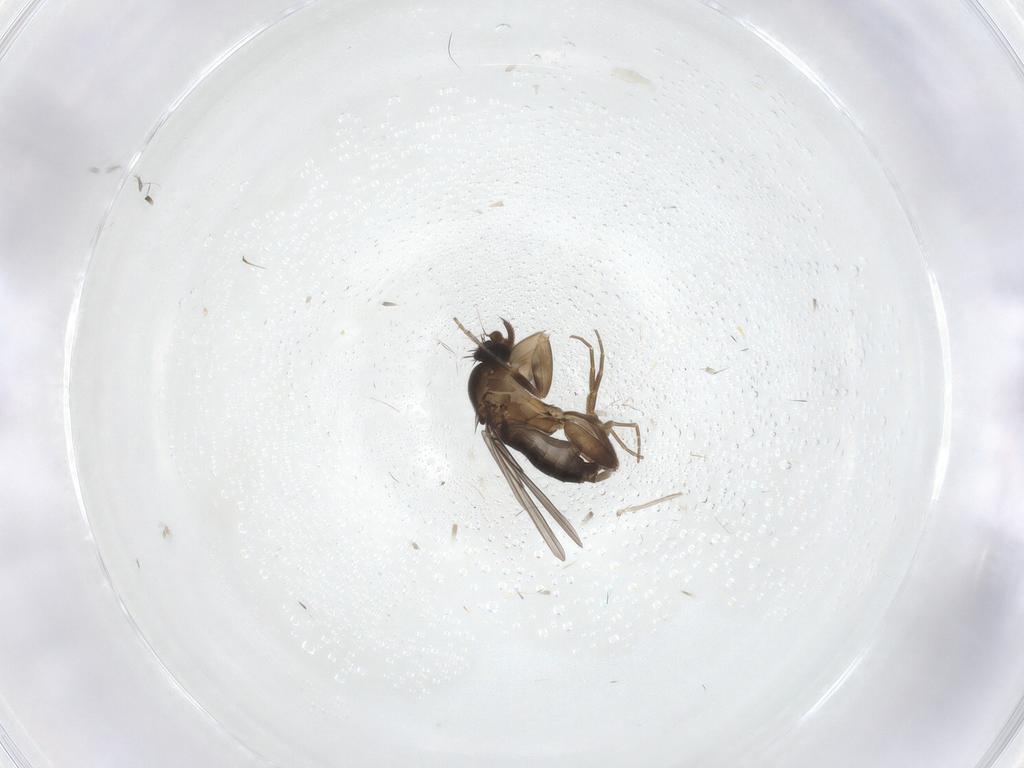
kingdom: Animalia
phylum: Arthropoda
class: Insecta
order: Diptera
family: Phoridae
